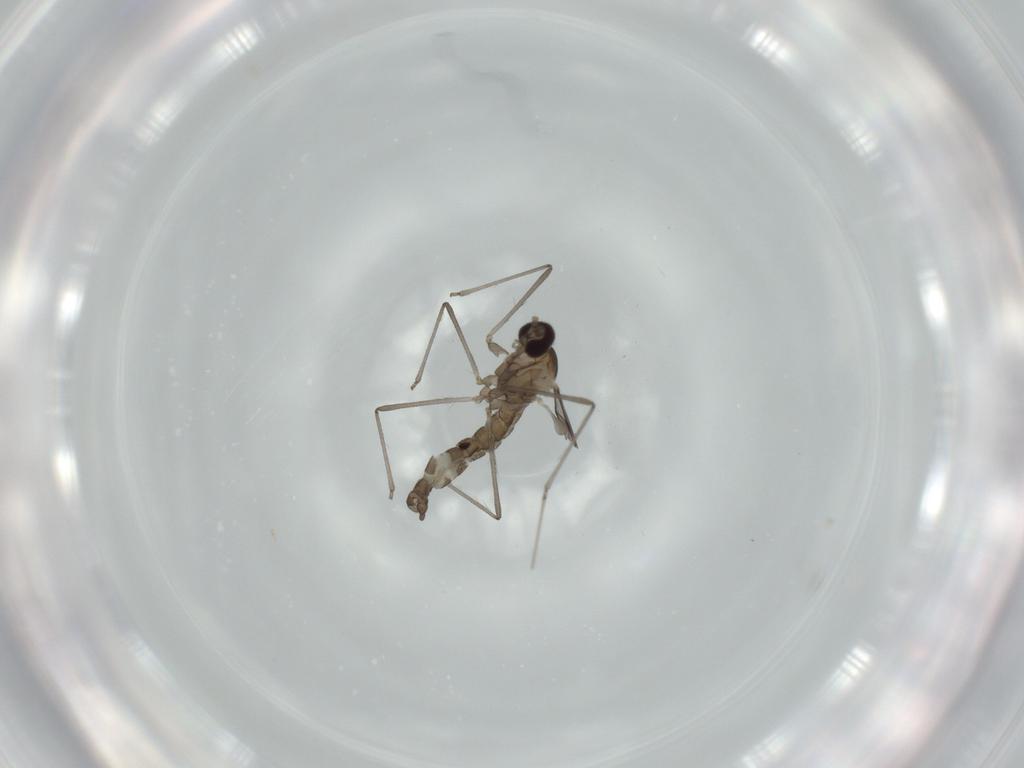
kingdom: Animalia
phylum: Arthropoda
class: Insecta
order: Diptera
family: Cecidomyiidae
